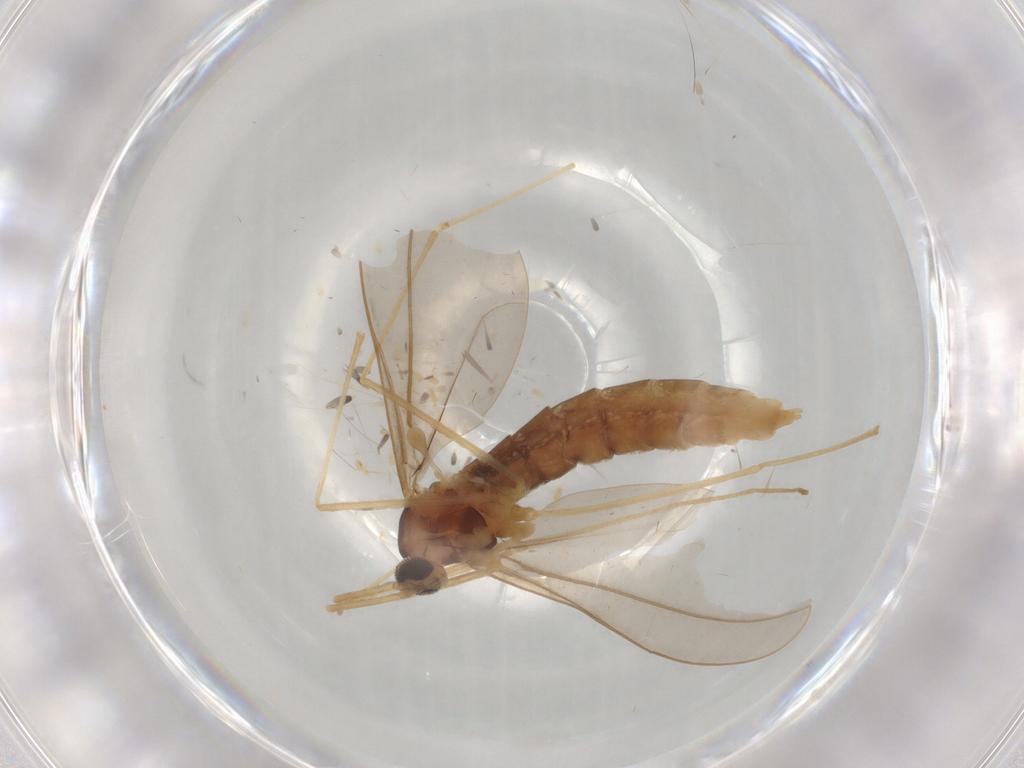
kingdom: Animalia
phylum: Arthropoda
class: Insecta
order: Diptera
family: Cecidomyiidae
